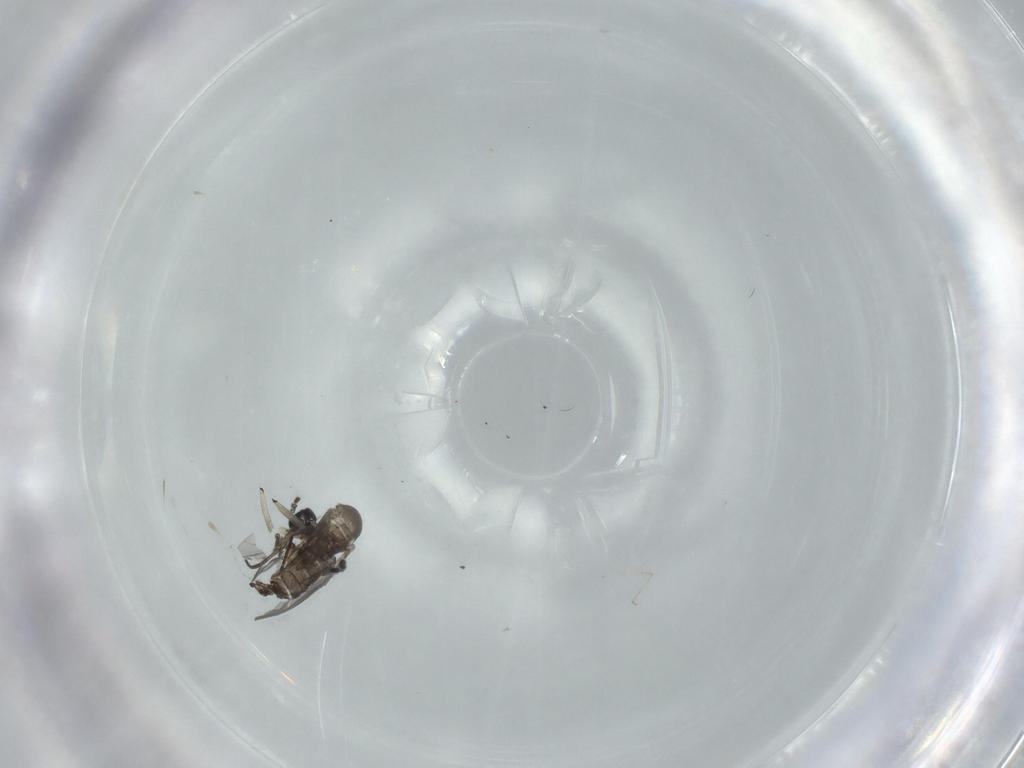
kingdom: Animalia
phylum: Arthropoda
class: Insecta
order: Diptera
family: Sciaridae
